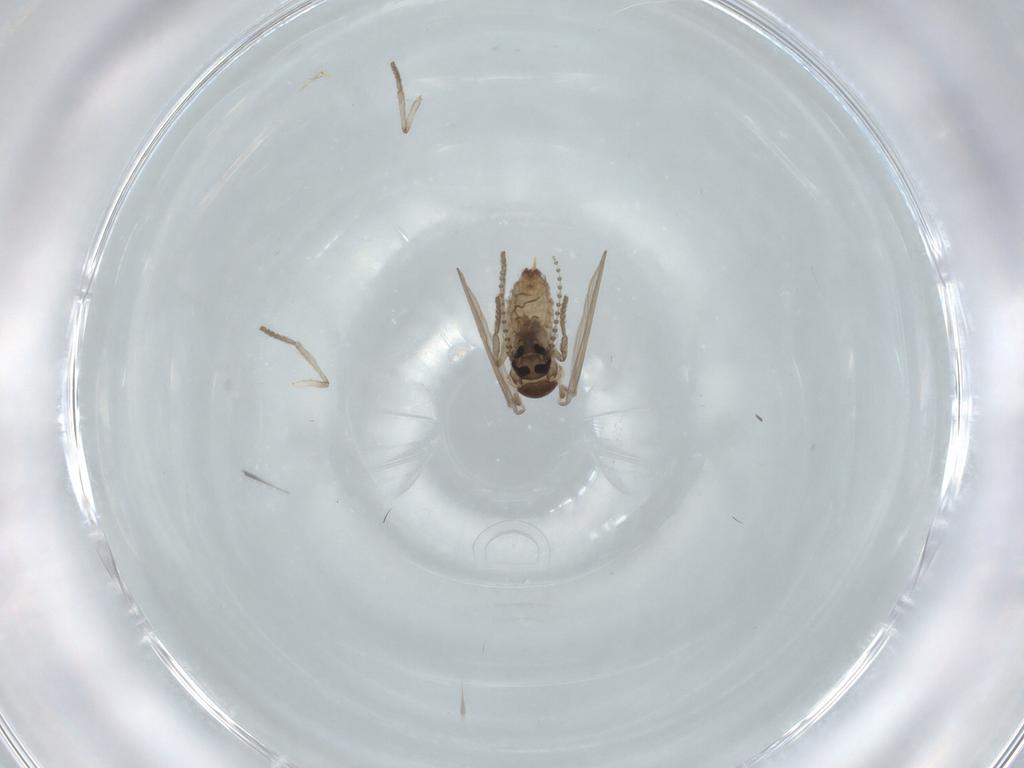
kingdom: Animalia
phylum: Arthropoda
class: Insecta
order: Diptera
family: Psychodidae
